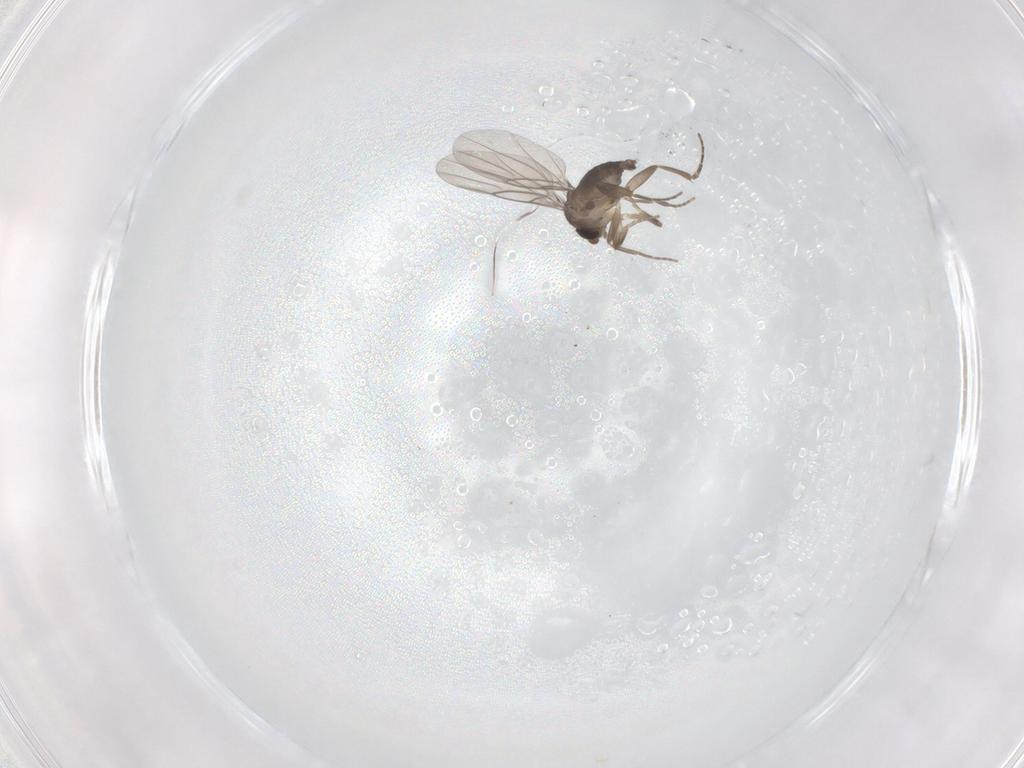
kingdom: Animalia
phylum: Arthropoda
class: Insecta
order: Diptera
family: Phoridae
